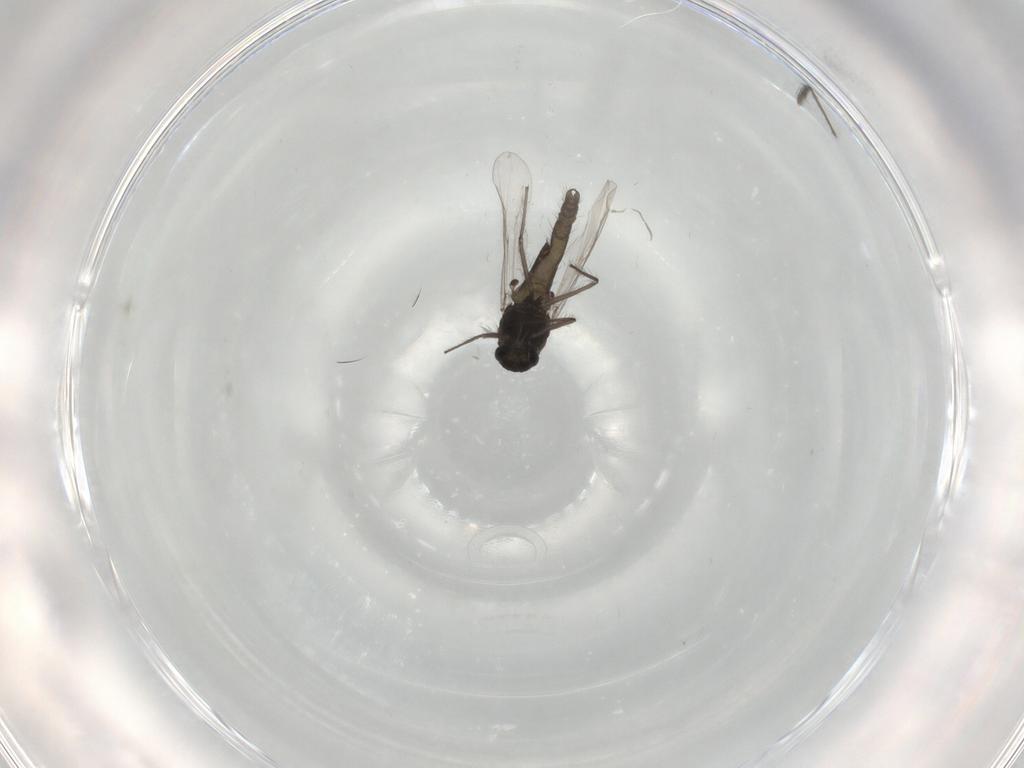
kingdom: Animalia
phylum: Arthropoda
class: Insecta
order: Diptera
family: Chironomidae
